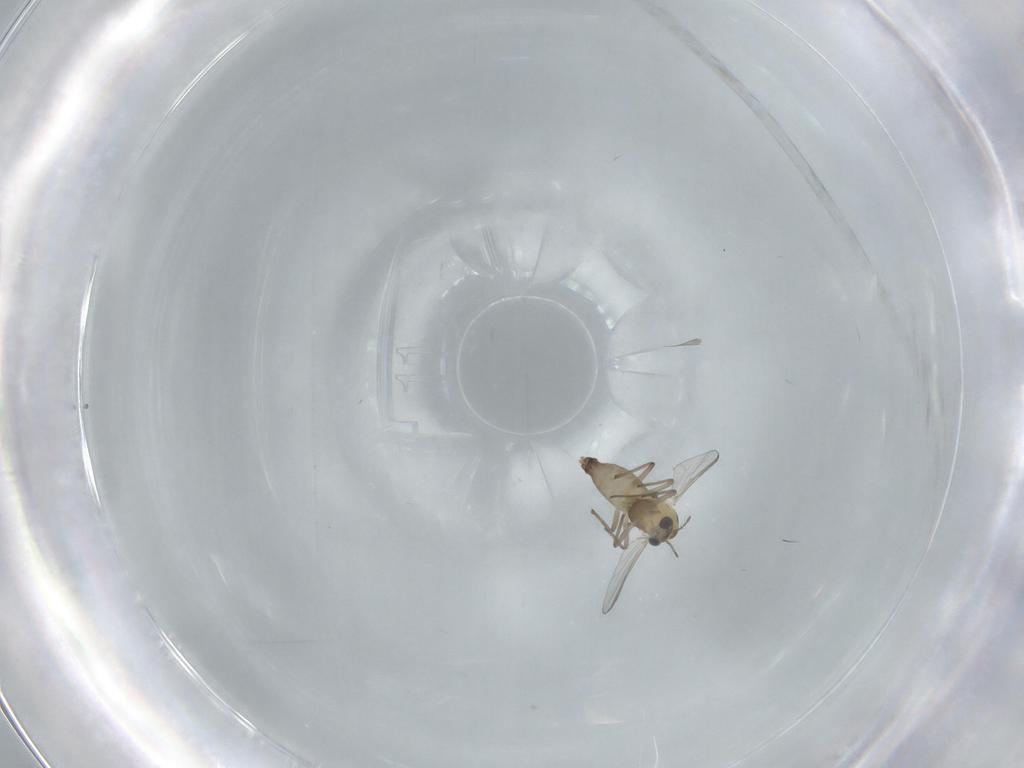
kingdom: Animalia
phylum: Arthropoda
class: Insecta
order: Diptera
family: Chironomidae
